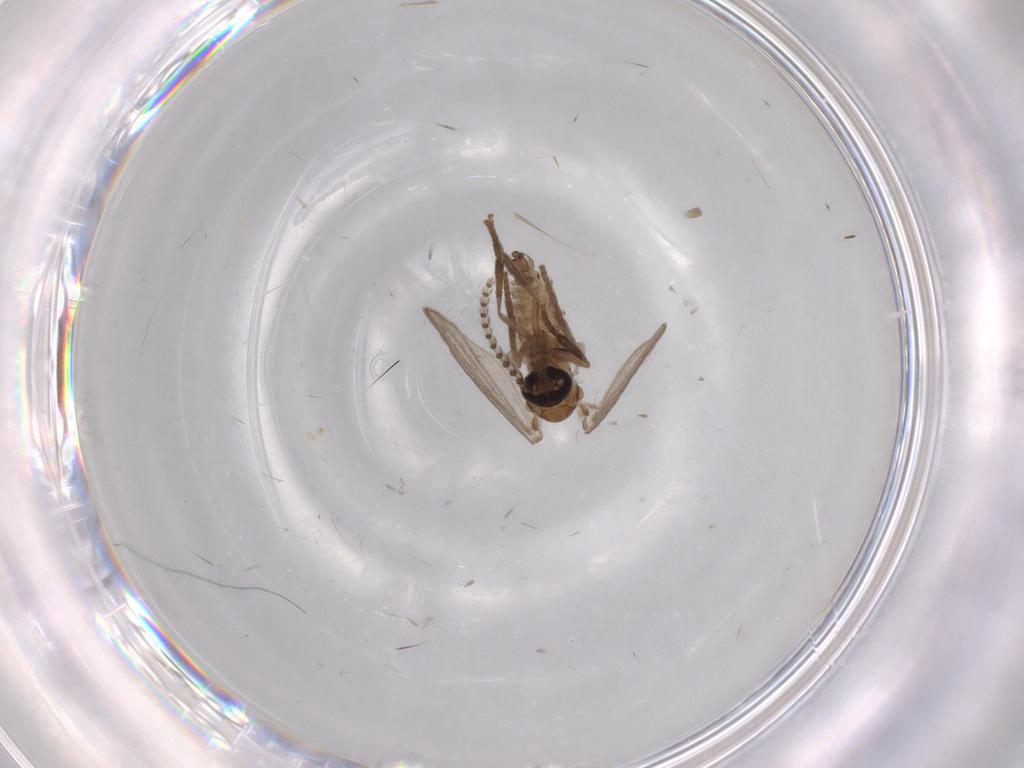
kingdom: Animalia
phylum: Arthropoda
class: Insecta
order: Diptera
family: Psychodidae
